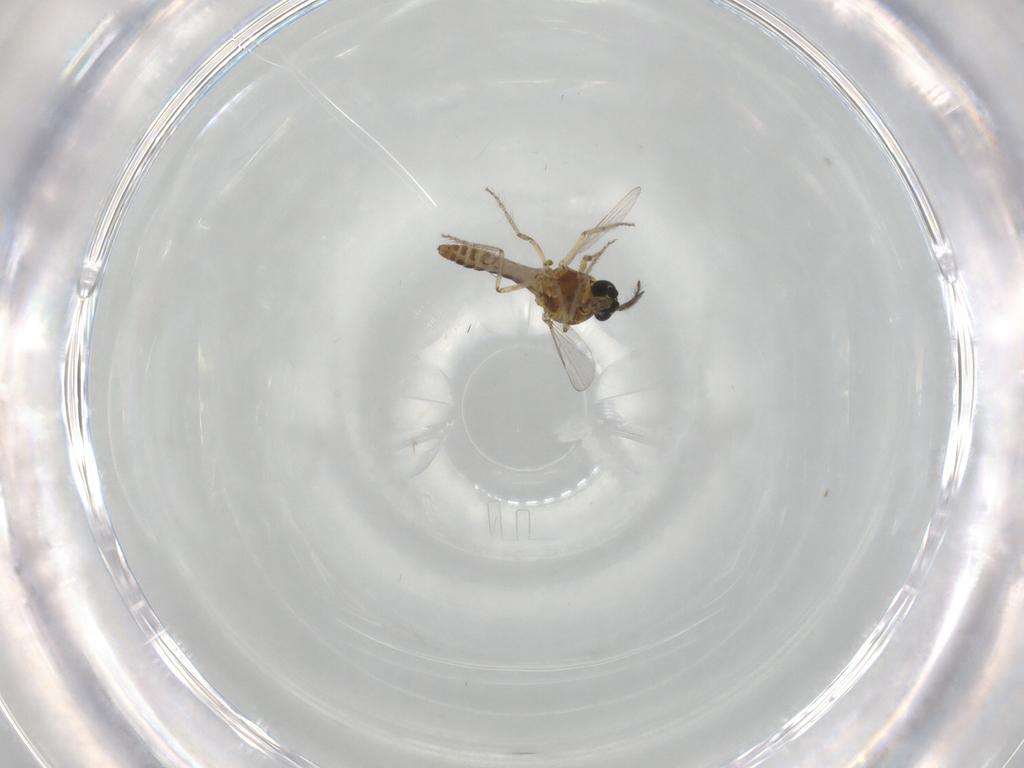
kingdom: Animalia
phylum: Arthropoda
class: Insecta
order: Diptera
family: Ceratopogonidae
